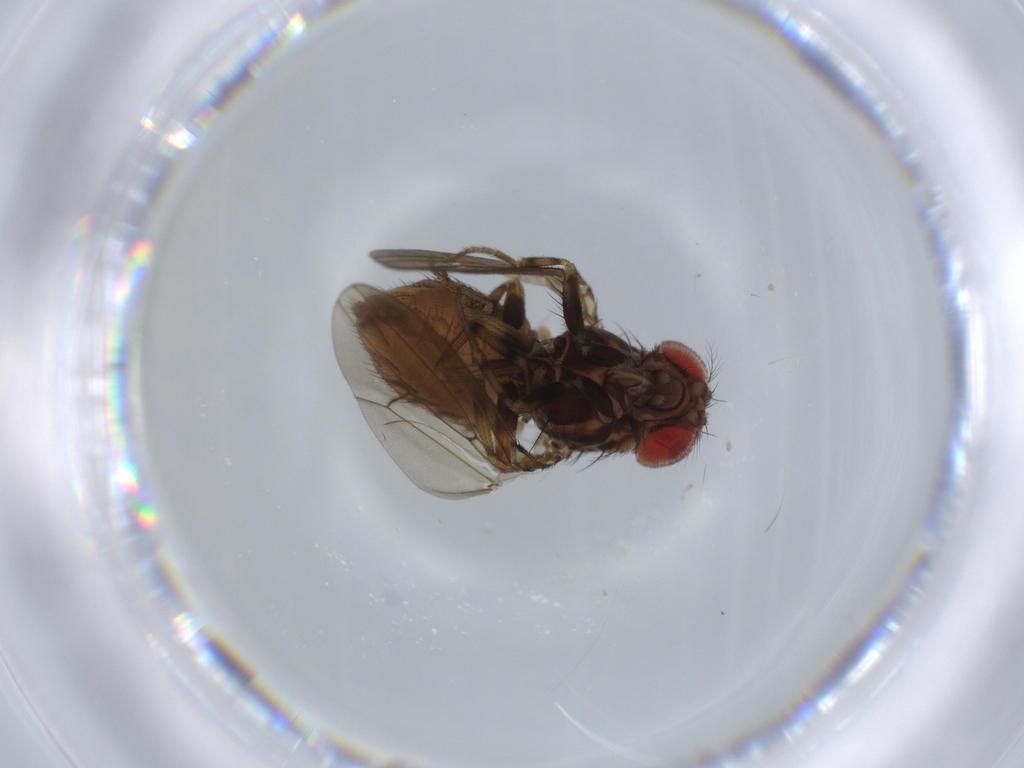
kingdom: Animalia
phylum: Arthropoda
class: Insecta
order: Diptera
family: Drosophilidae
